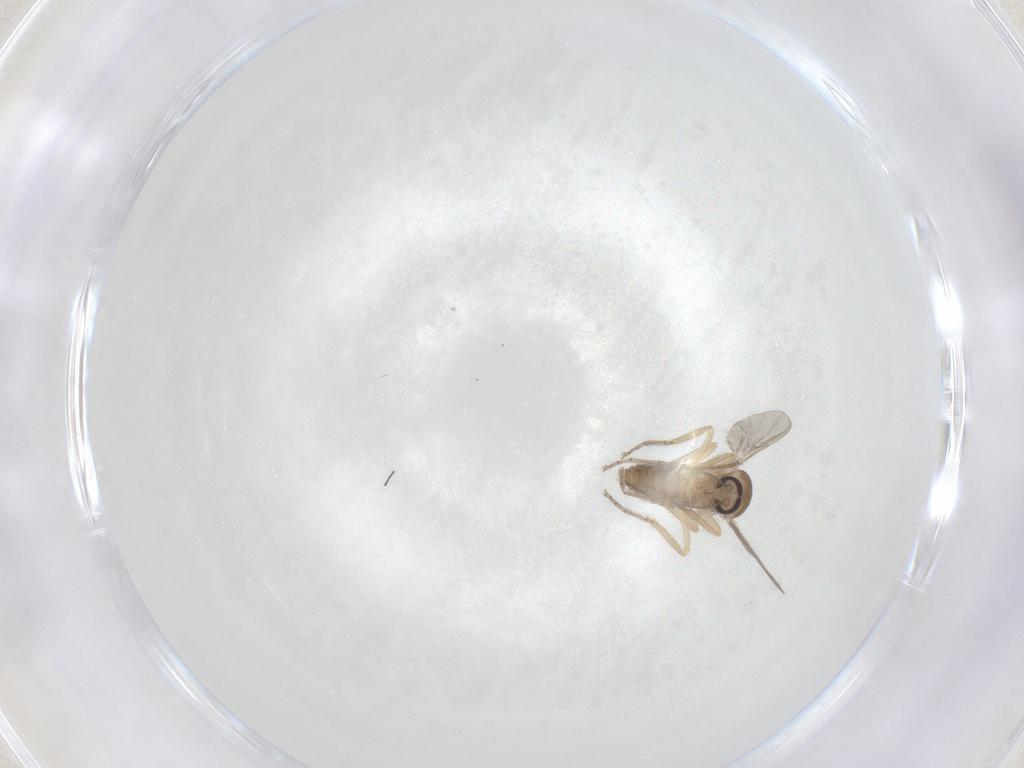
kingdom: Animalia
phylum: Arthropoda
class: Insecta
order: Diptera
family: Ceratopogonidae
